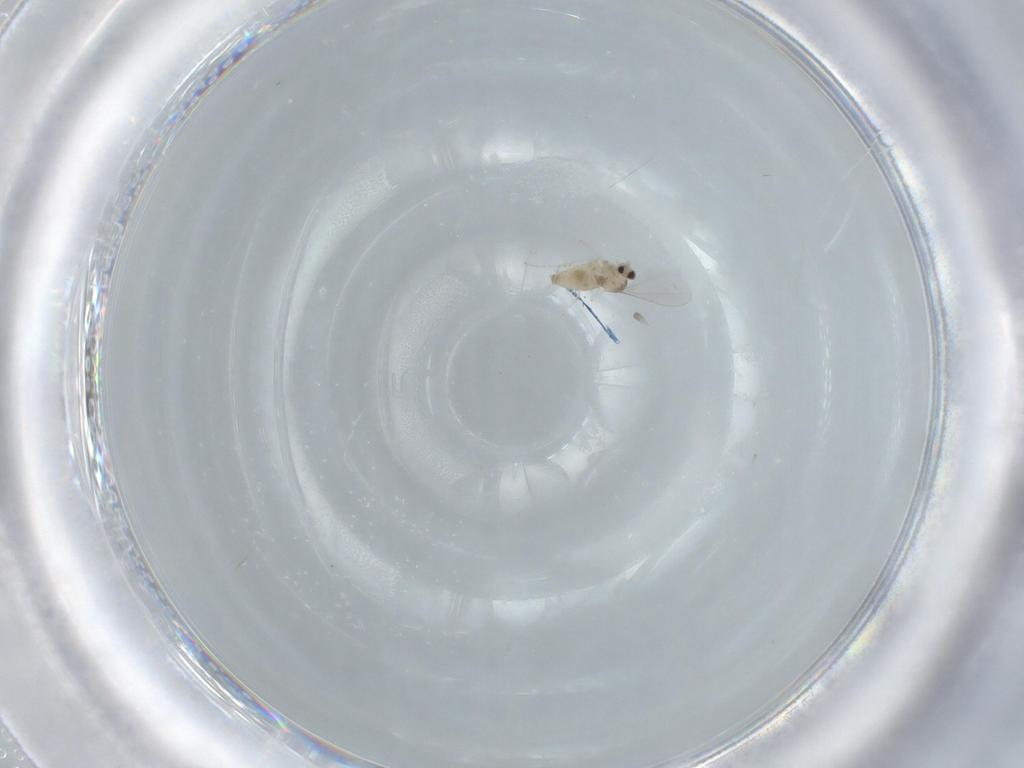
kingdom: Animalia
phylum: Arthropoda
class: Insecta
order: Diptera
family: Cecidomyiidae
